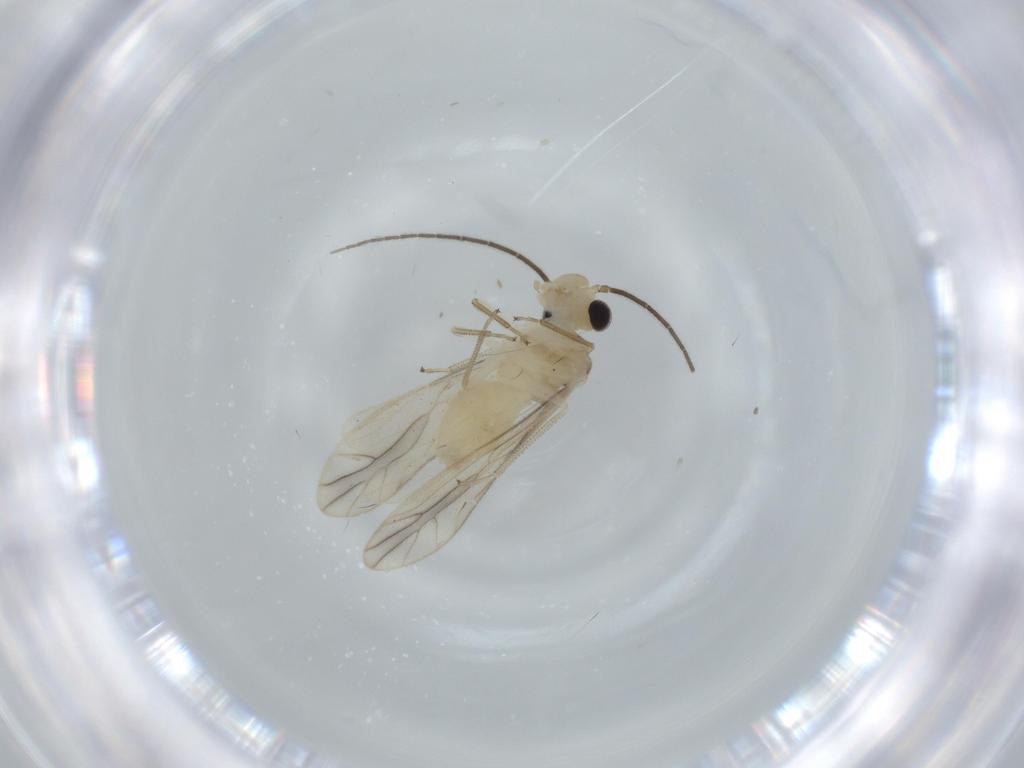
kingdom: Animalia
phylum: Arthropoda
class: Insecta
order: Psocodea
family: Caeciliusidae
